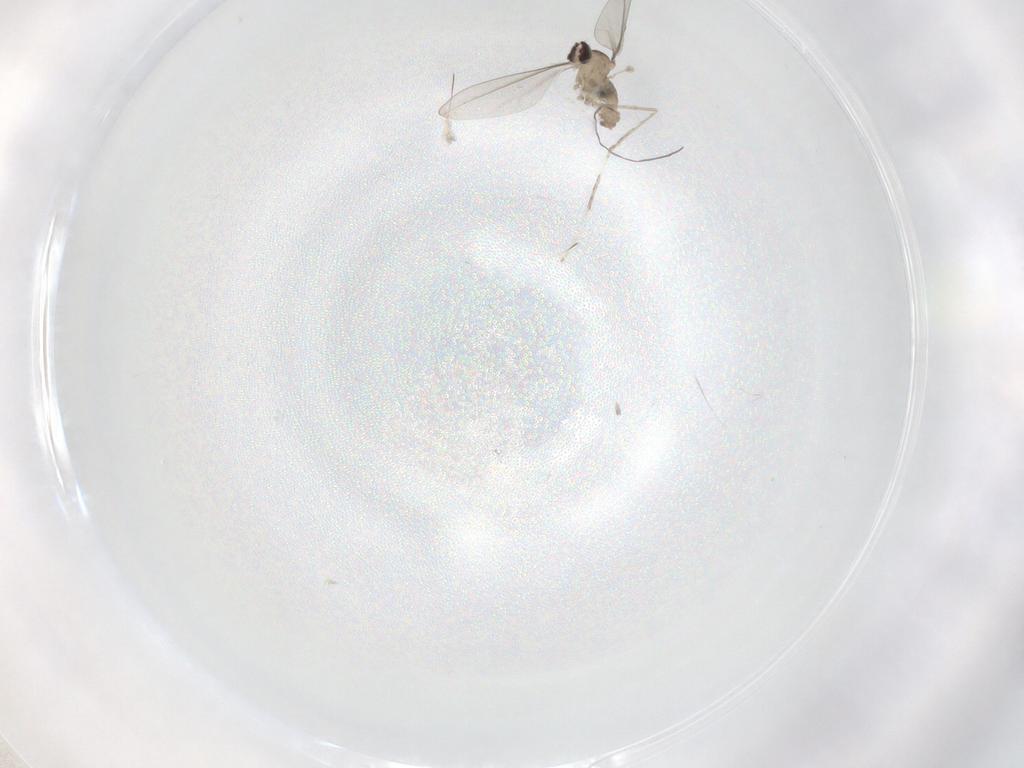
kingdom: Animalia
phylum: Arthropoda
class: Insecta
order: Diptera
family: Cecidomyiidae
